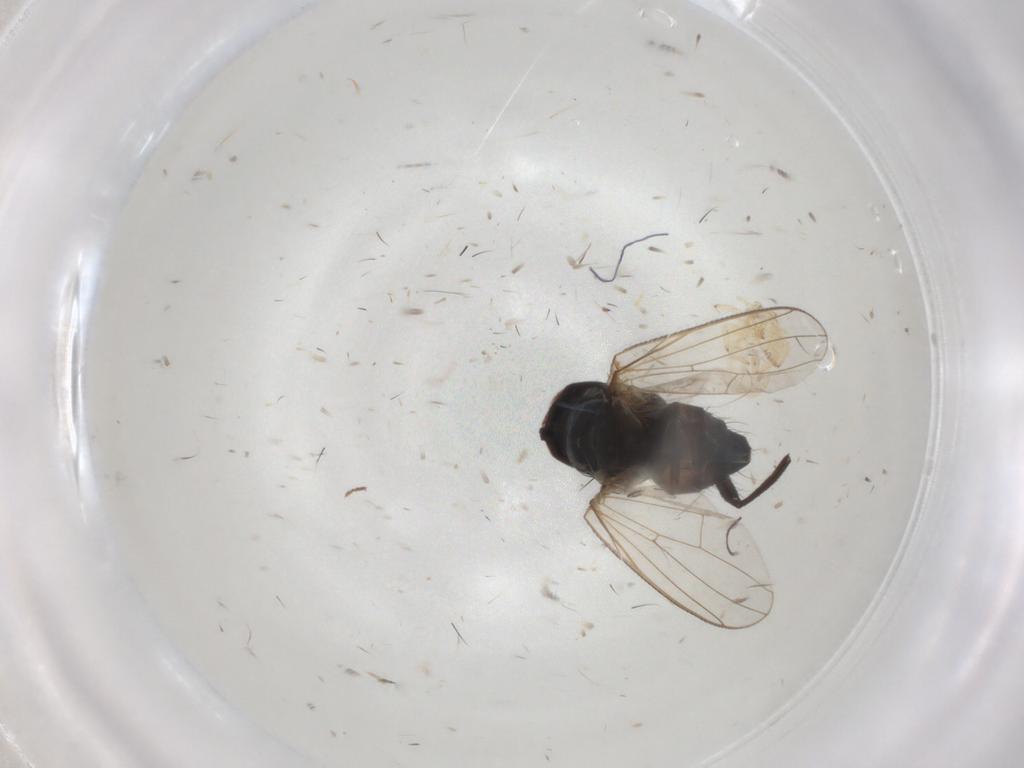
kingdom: Animalia
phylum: Arthropoda
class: Insecta
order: Diptera
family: Muscidae
